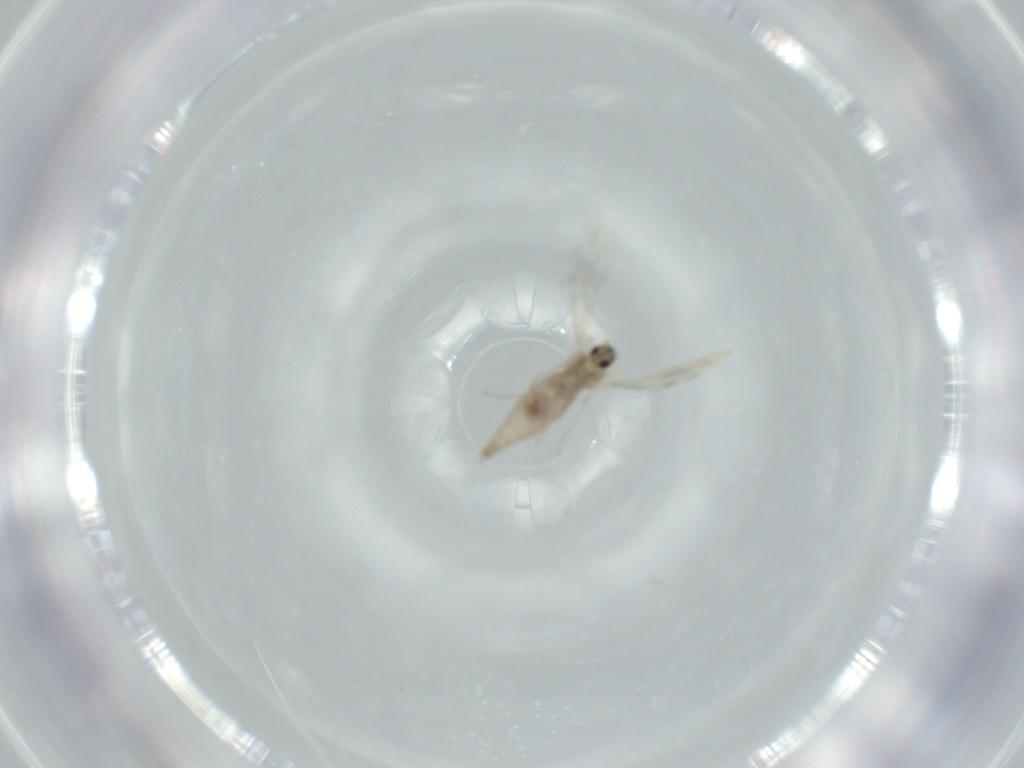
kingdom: Animalia
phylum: Arthropoda
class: Insecta
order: Diptera
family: Cecidomyiidae
